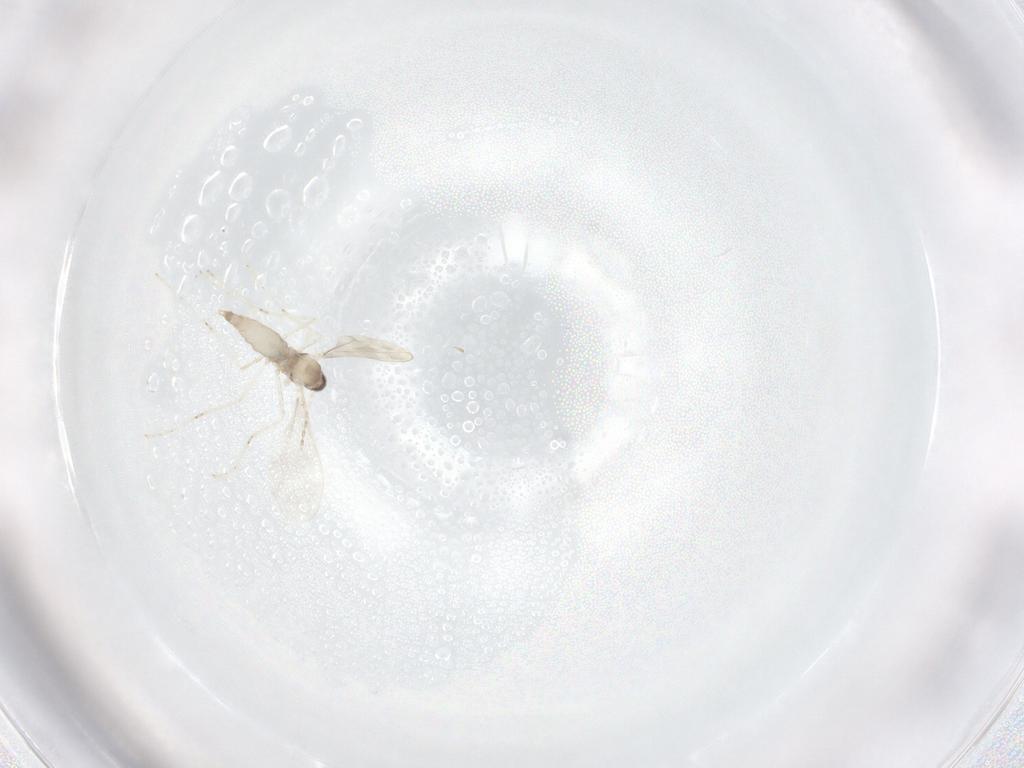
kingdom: Animalia
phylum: Arthropoda
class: Insecta
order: Diptera
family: Cecidomyiidae
